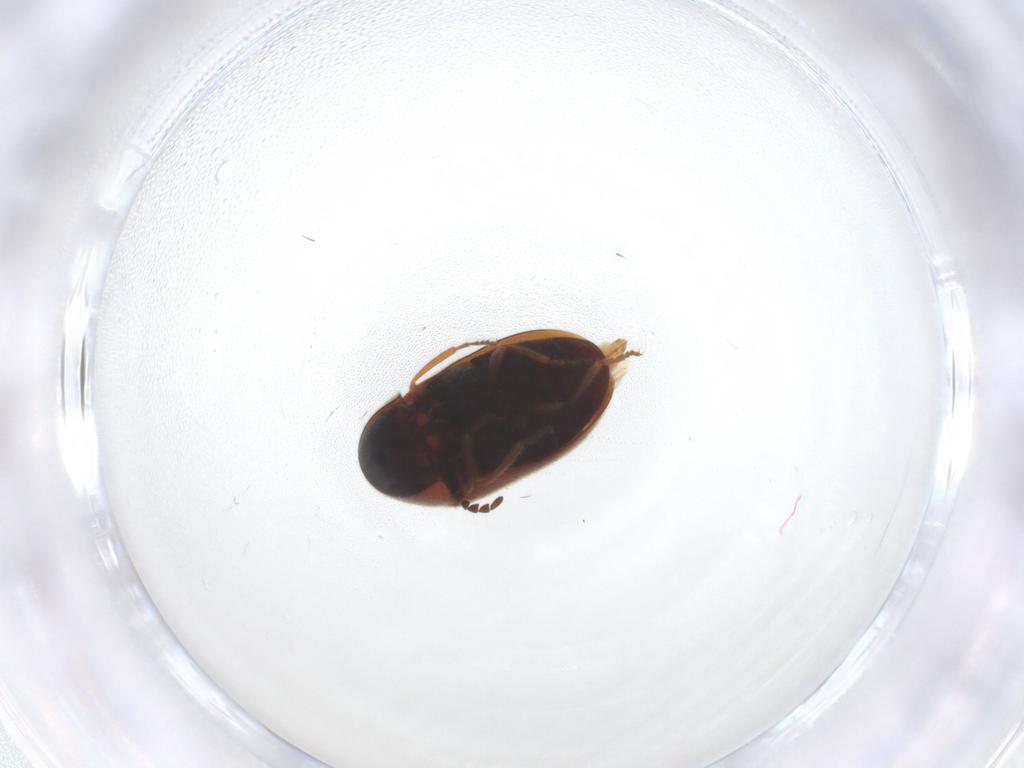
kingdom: Animalia
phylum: Arthropoda
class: Insecta
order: Coleoptera
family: Ptinidae
